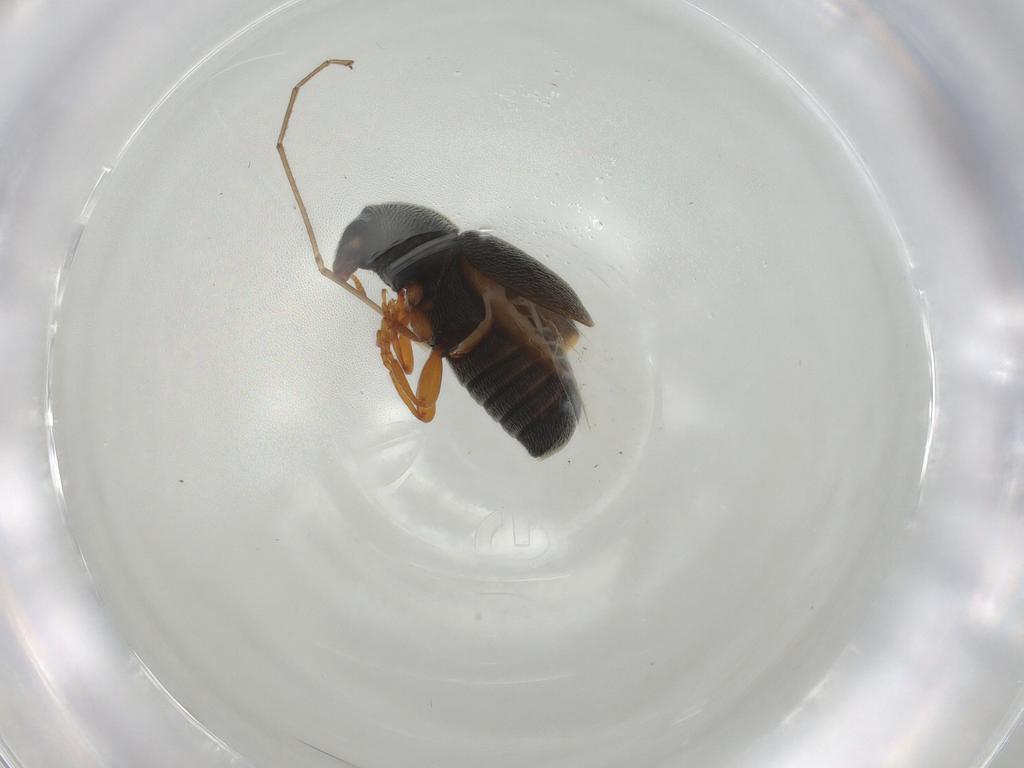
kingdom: Animalia
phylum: Arthropoda
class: Insecta
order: Coleoptera
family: Anthribidae
